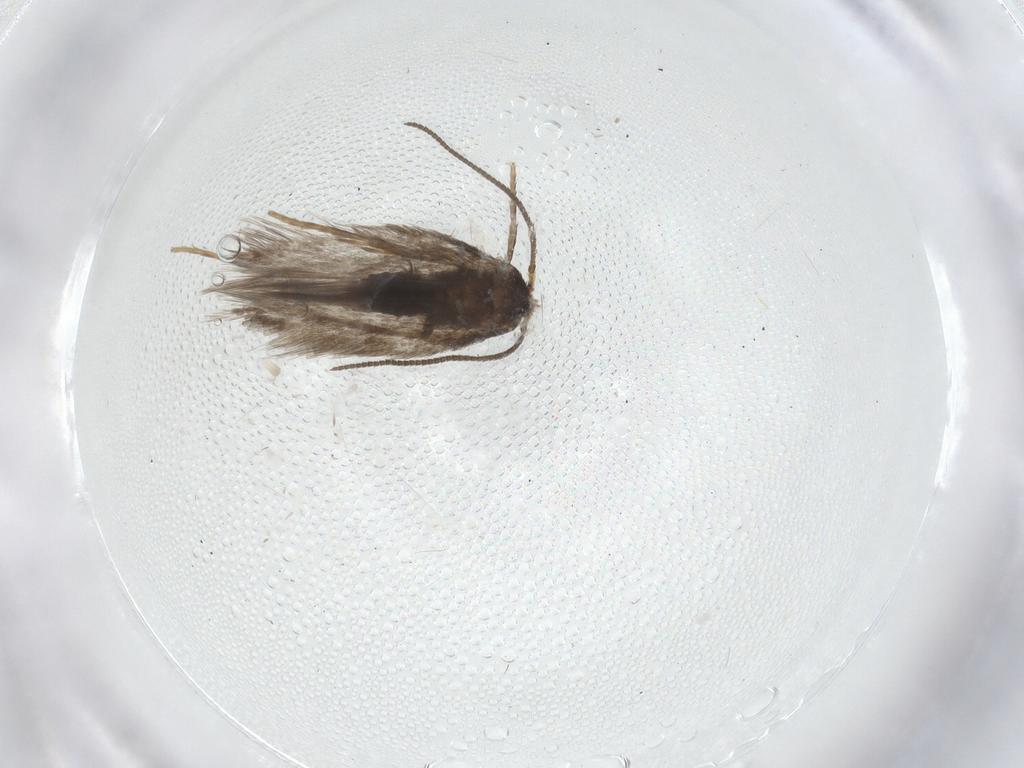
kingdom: Animalia
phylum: Arthropoda
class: Insecta
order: Lepidoptera
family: Nepticulidae
